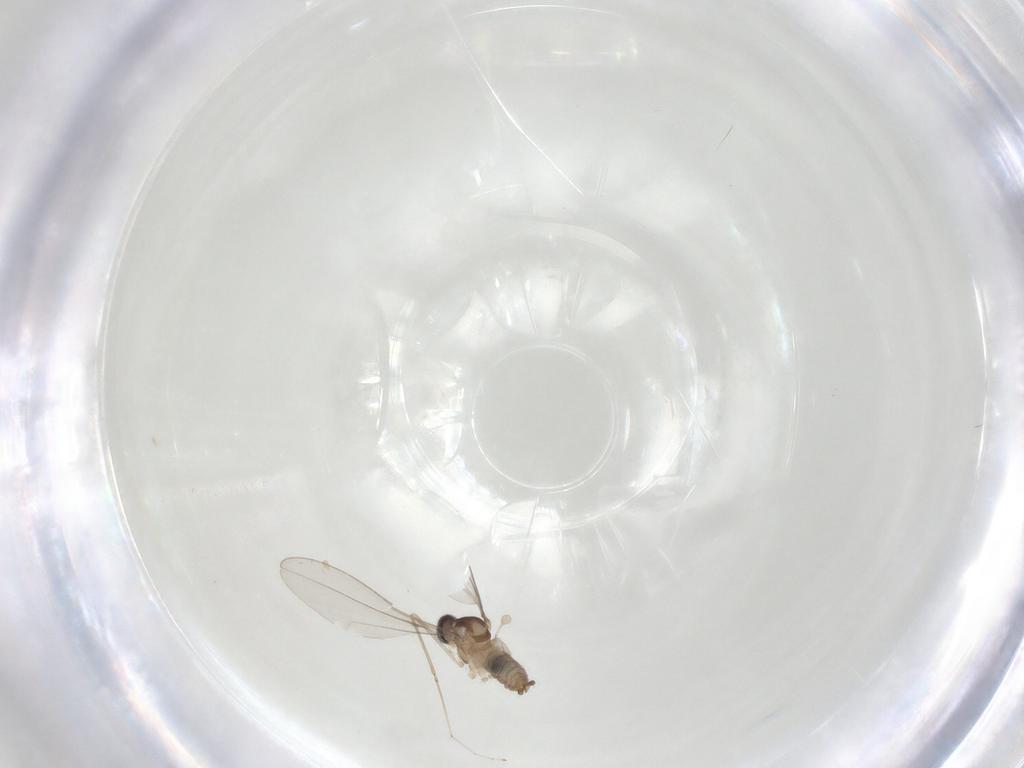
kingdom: Animalia
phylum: Arthropoda
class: Insecta
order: Diptera
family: Cecidomyiidae
